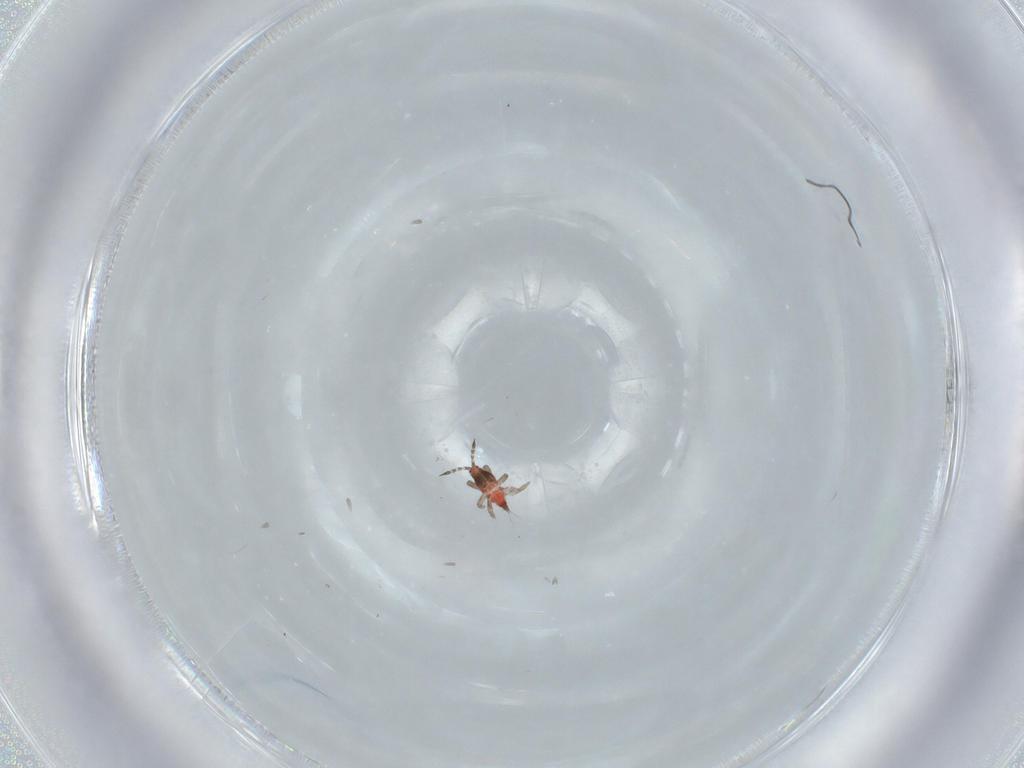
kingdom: Animalia
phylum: Arthropoda
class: Insecta
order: Thysanoptera
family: Phlaeothripidae
